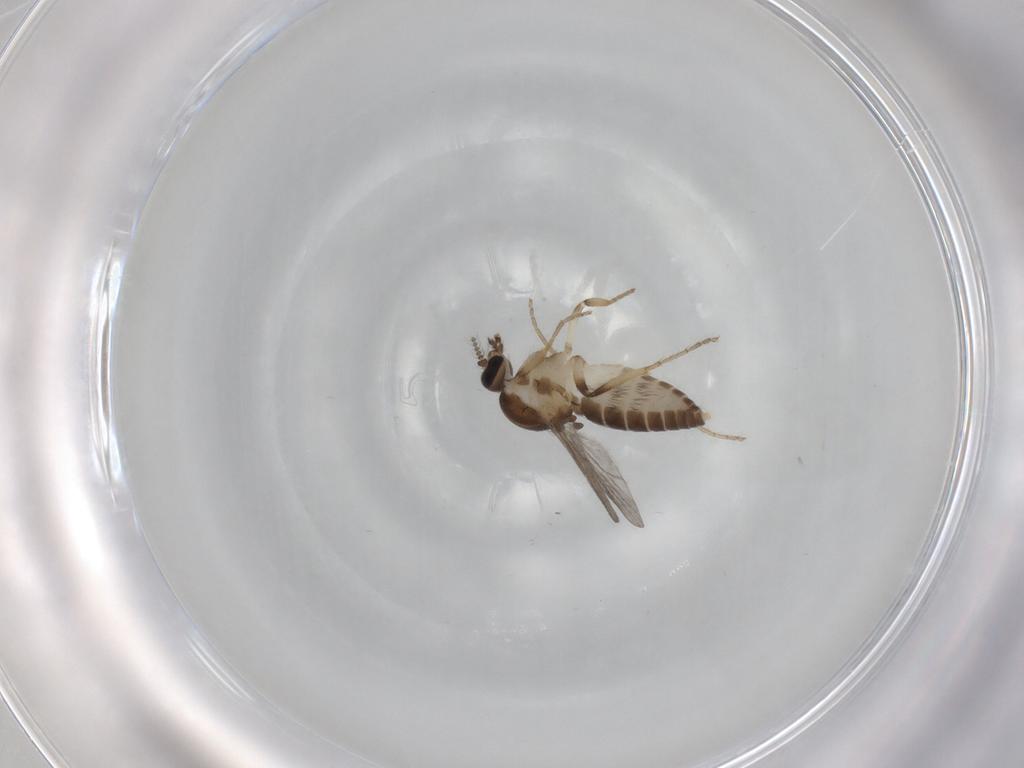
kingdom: Animalia
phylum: Arthropoda
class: Insecta
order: Diptera
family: Ceratopogonidae
